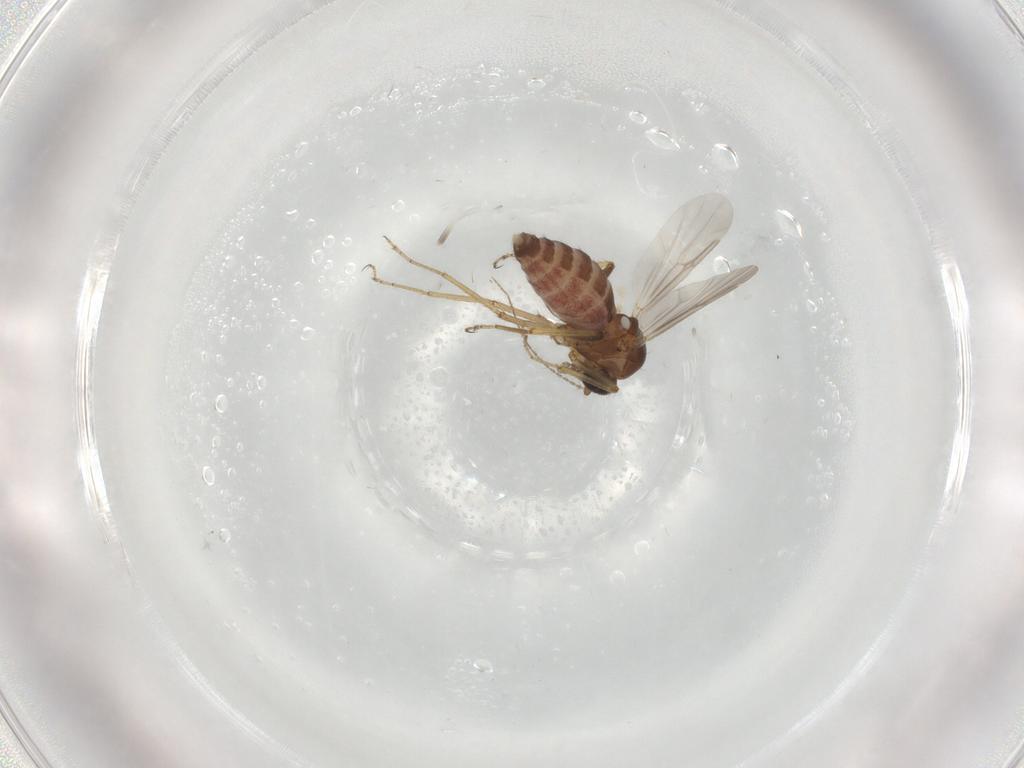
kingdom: Animalia
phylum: Arthropoda
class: Insecta
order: Diptera
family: Ceratopogonidae
